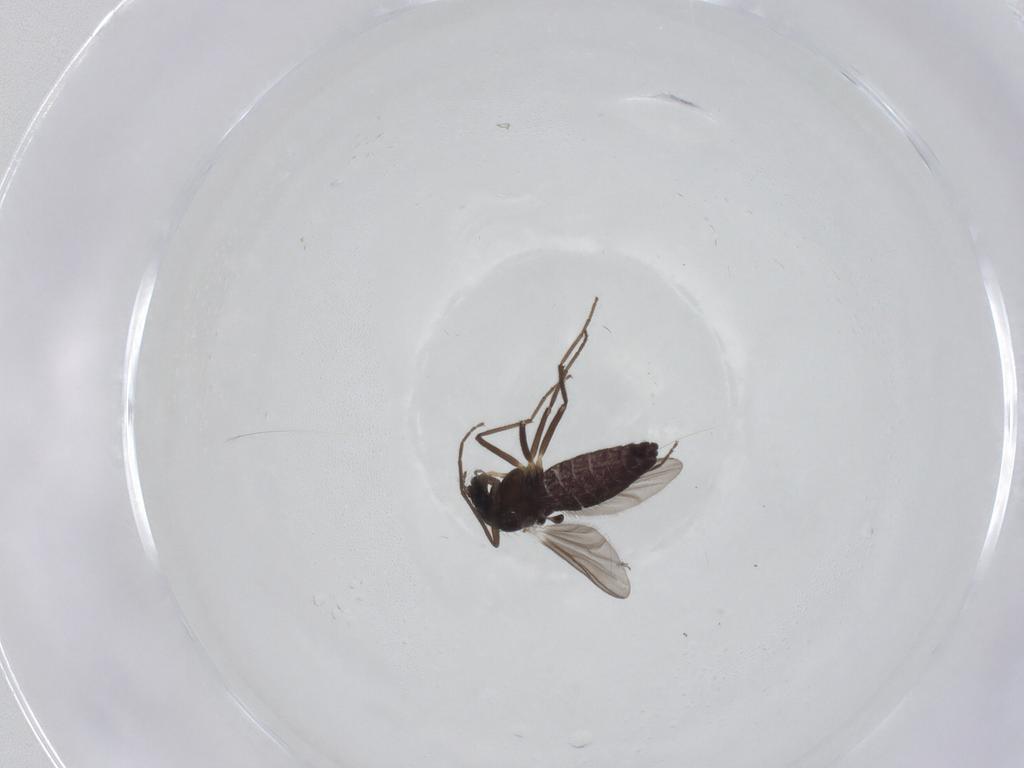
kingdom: Animalia
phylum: Arthropoda
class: Insecta
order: Diptera
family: Chironomidae
